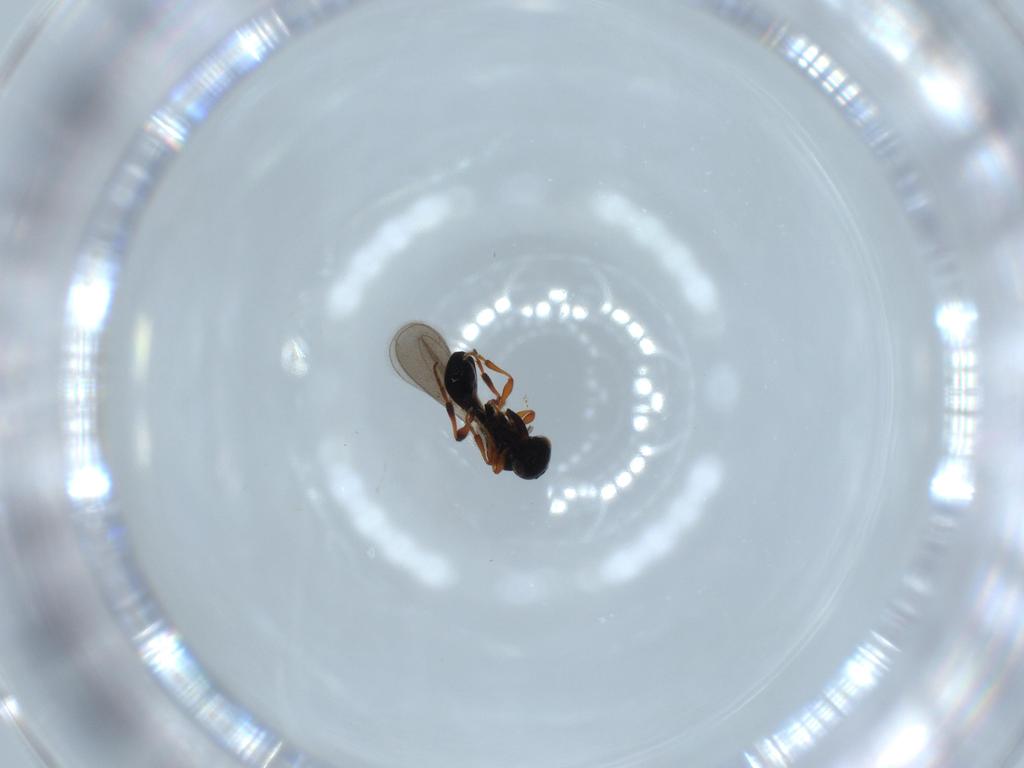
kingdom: Animalia
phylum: Arthropoda
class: Insecta
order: Hymenoptera
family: Platygastridae
